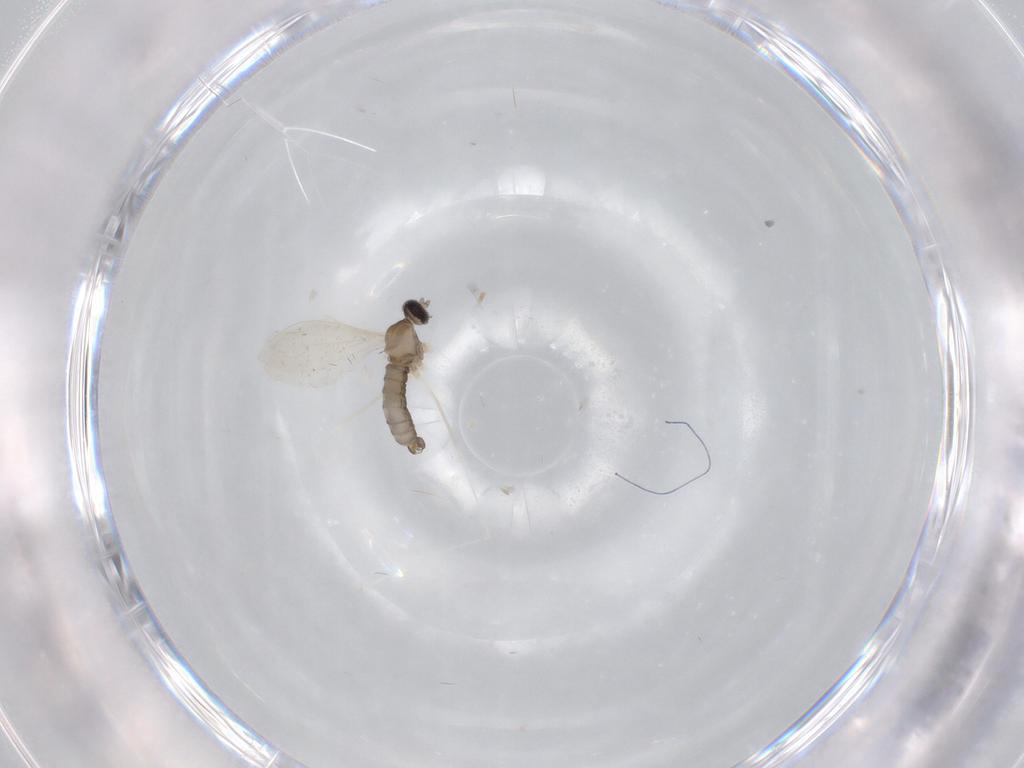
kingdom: Animalia
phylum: Arthropoda
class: Insecta
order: Diptera
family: Cecidomyiidae
